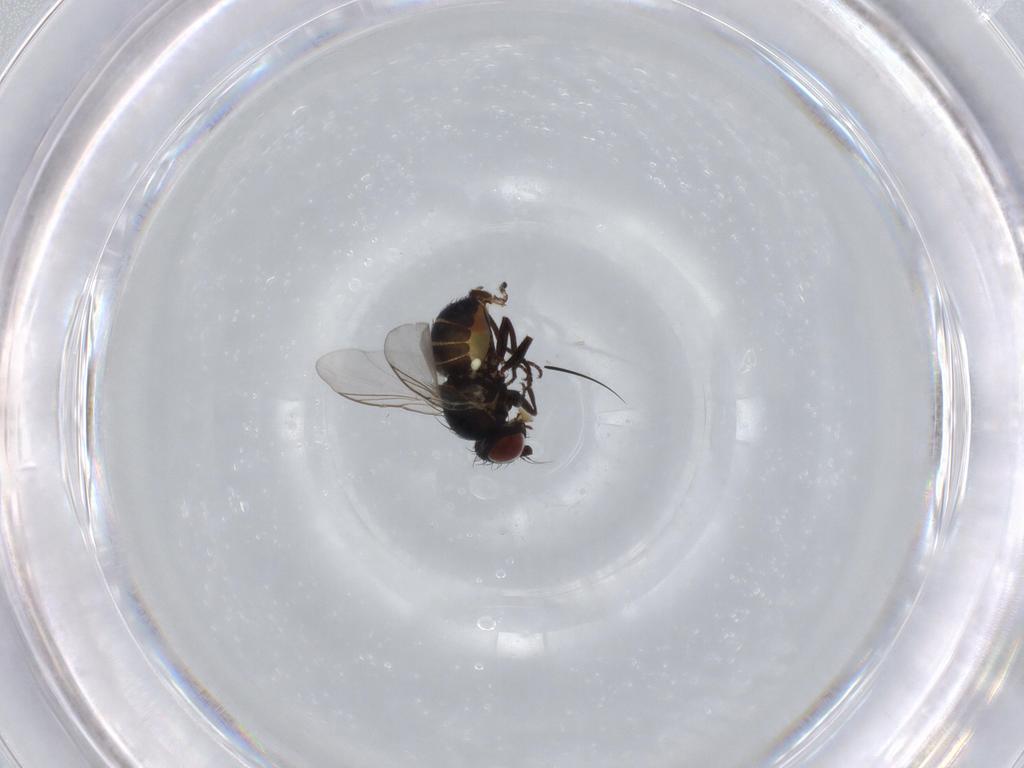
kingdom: Animalia
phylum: Arthropoda
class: Insecta
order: Diptera
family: Agromyzidae
